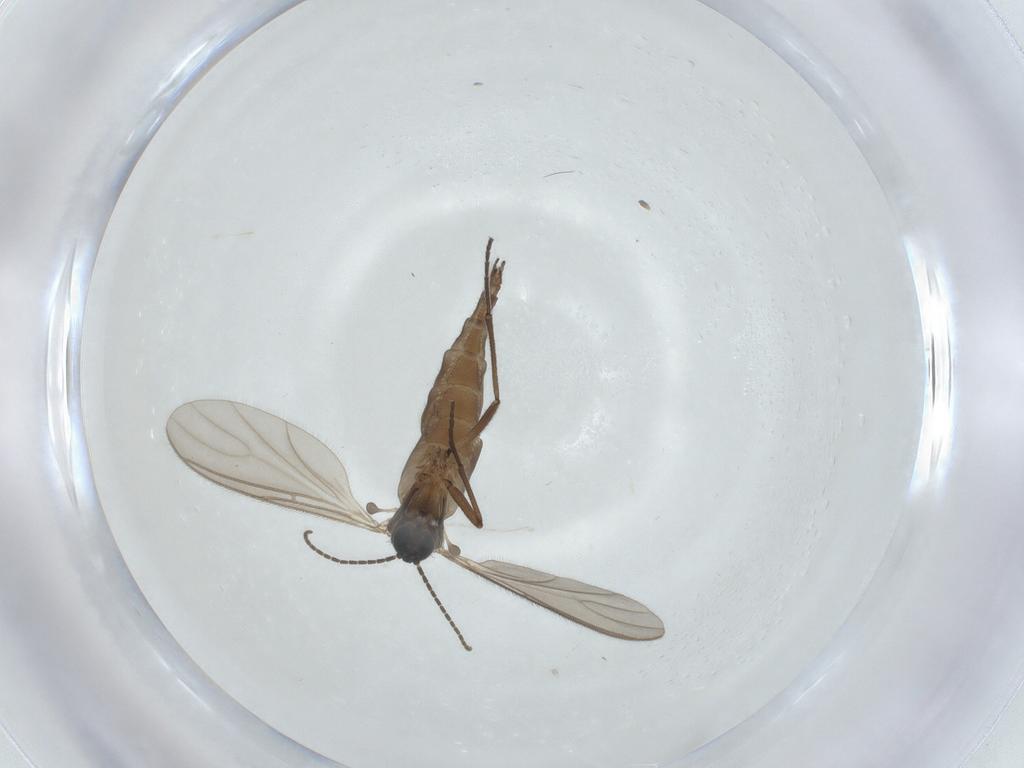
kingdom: Animalia
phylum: Arthropoda
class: Insecta
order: Diptera
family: Sciaridae
